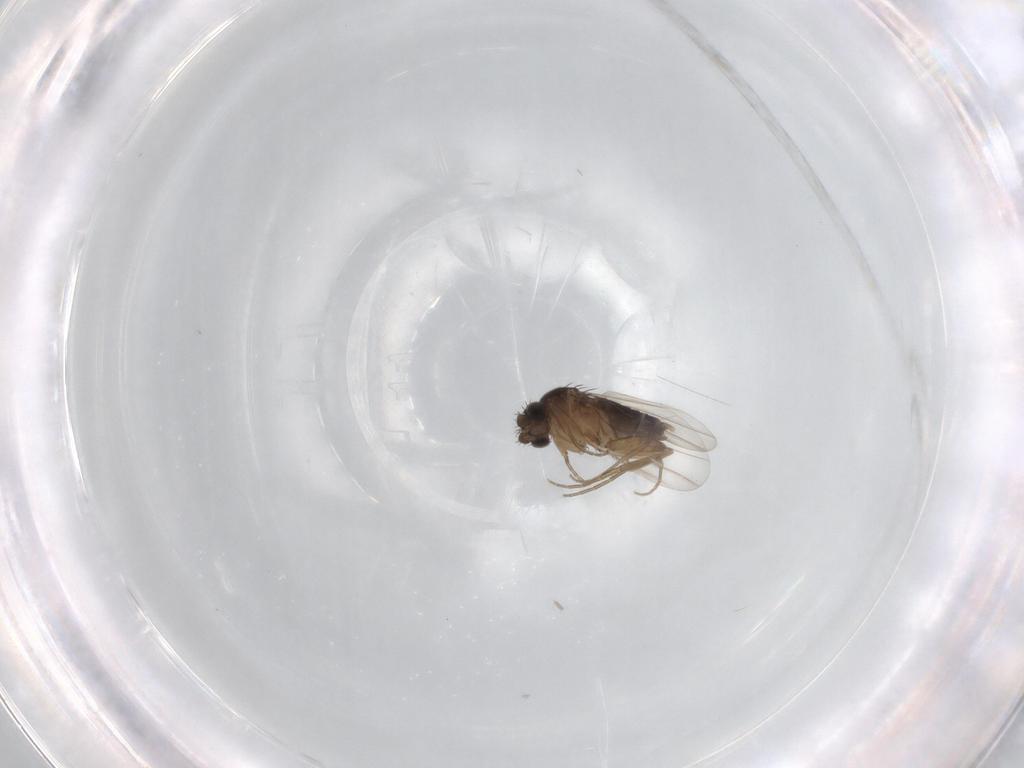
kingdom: Animalia
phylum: Arthropoda
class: Insecta
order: Diptera
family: Phoridae
